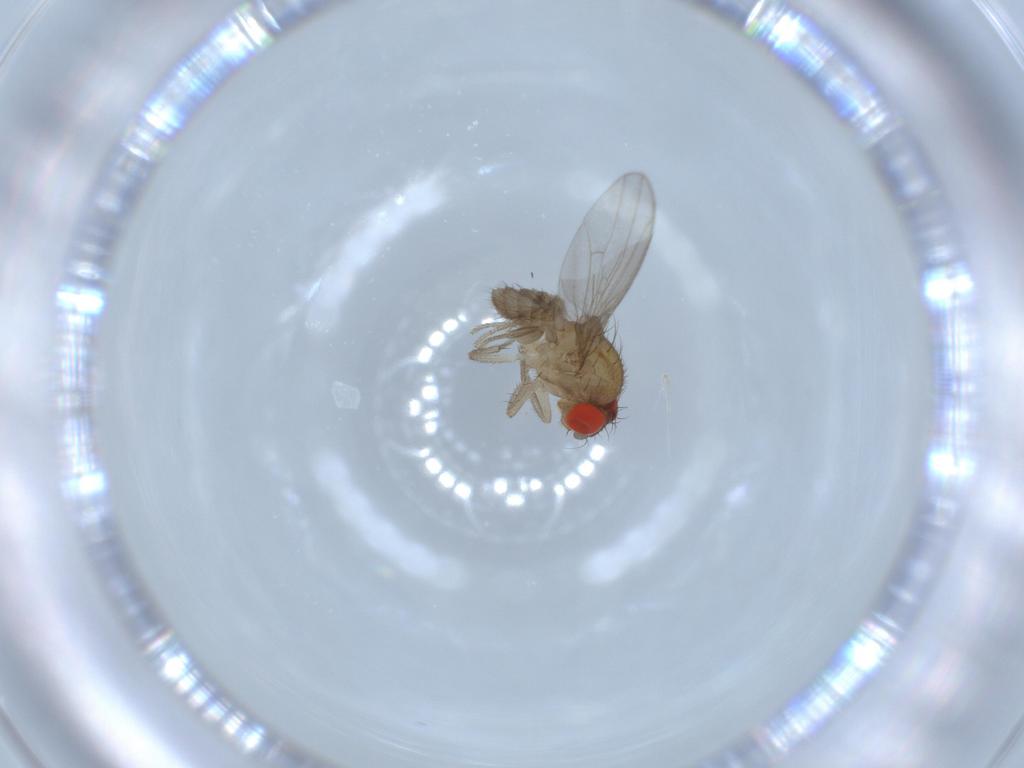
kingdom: Animalia
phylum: Arthropoda
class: Insecta
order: Diptera
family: Drosophilidae
